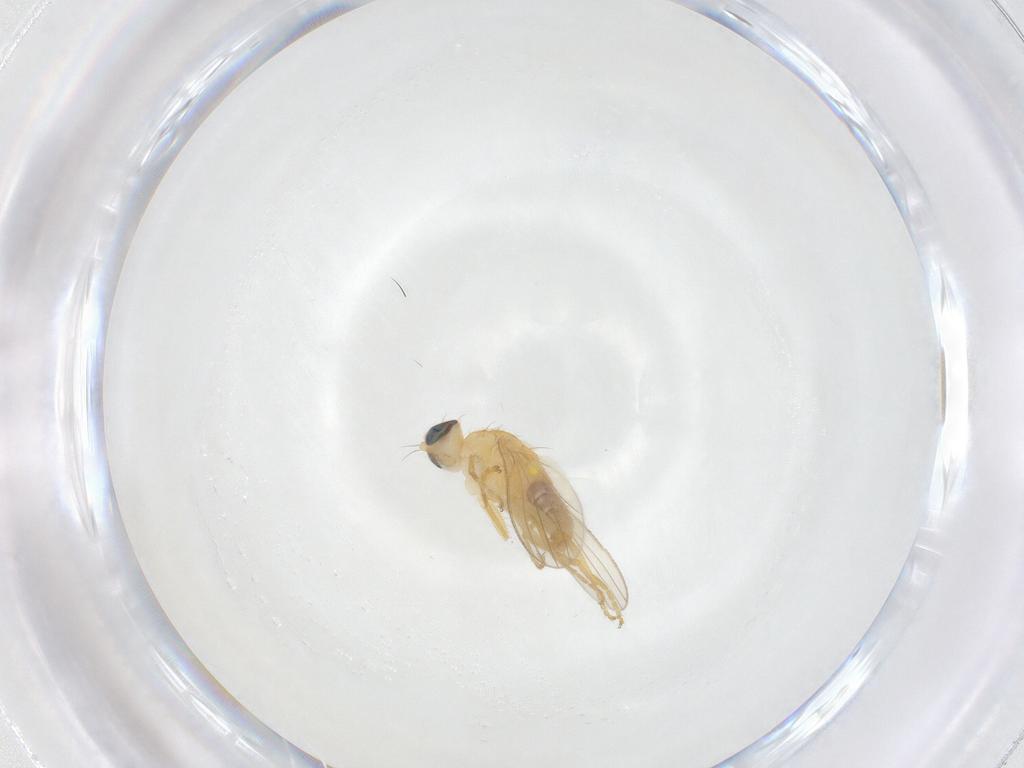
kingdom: Animalia
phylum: Arthropoda
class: Insecta
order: Diptera
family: Chyromyidae
